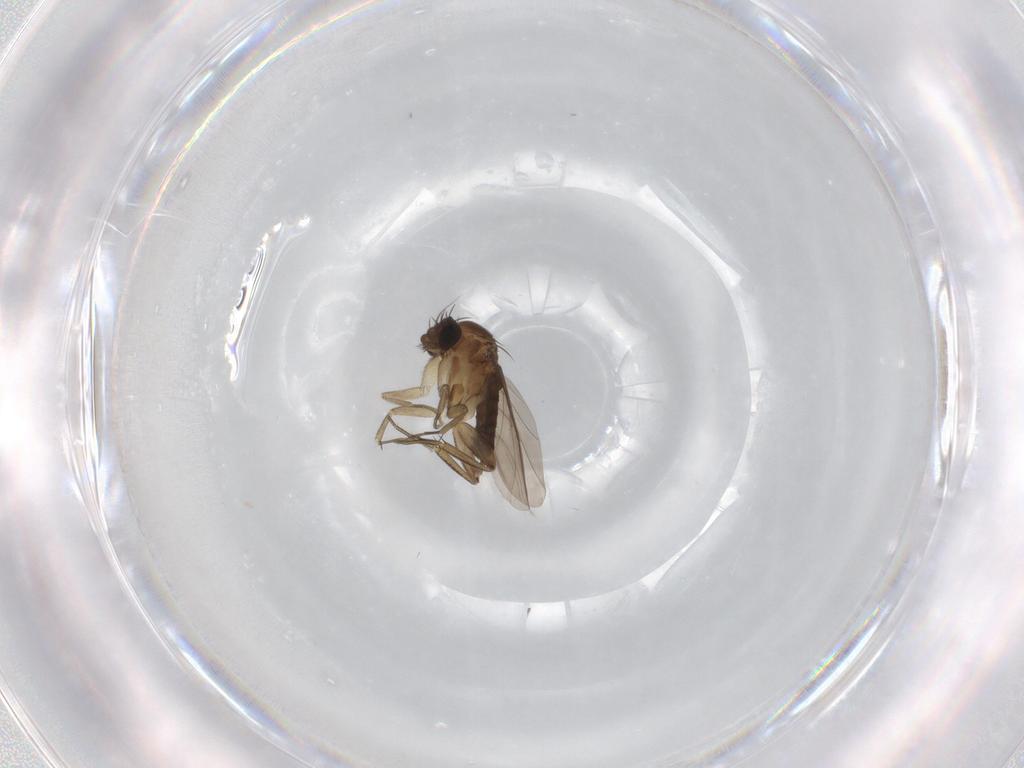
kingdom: Animalia
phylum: Arthropoda
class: Insecta
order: Diptera
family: Phoridae
